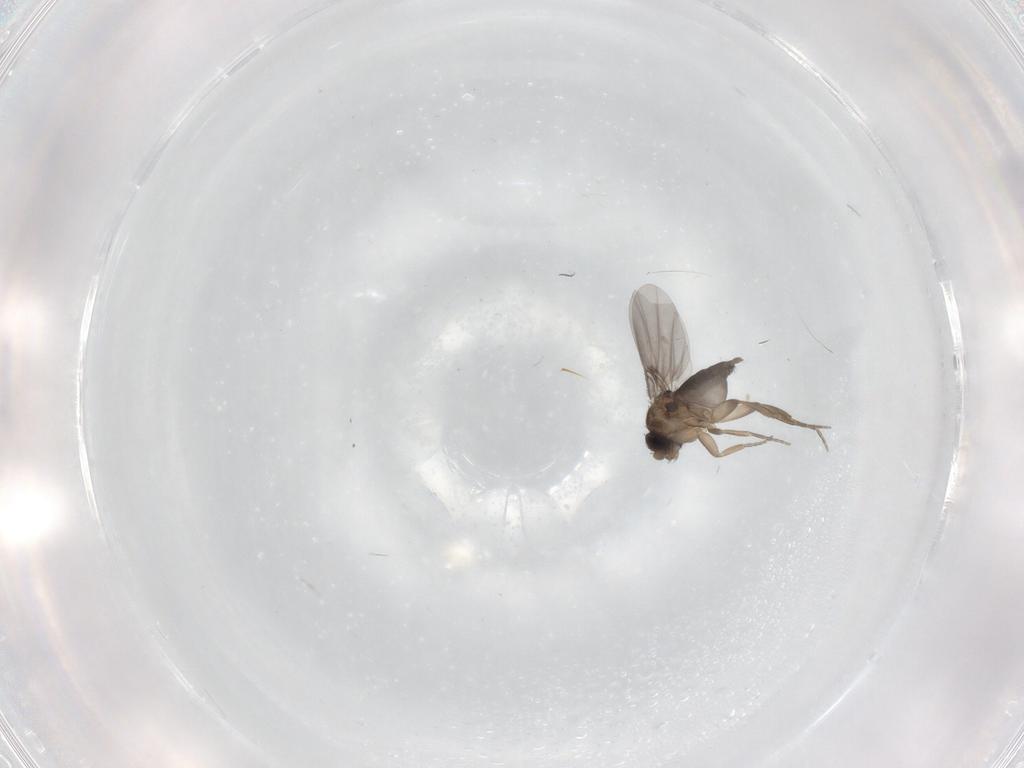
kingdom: Animalia
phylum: Arthropoda
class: Insecta
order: Diptera
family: Phoridae
